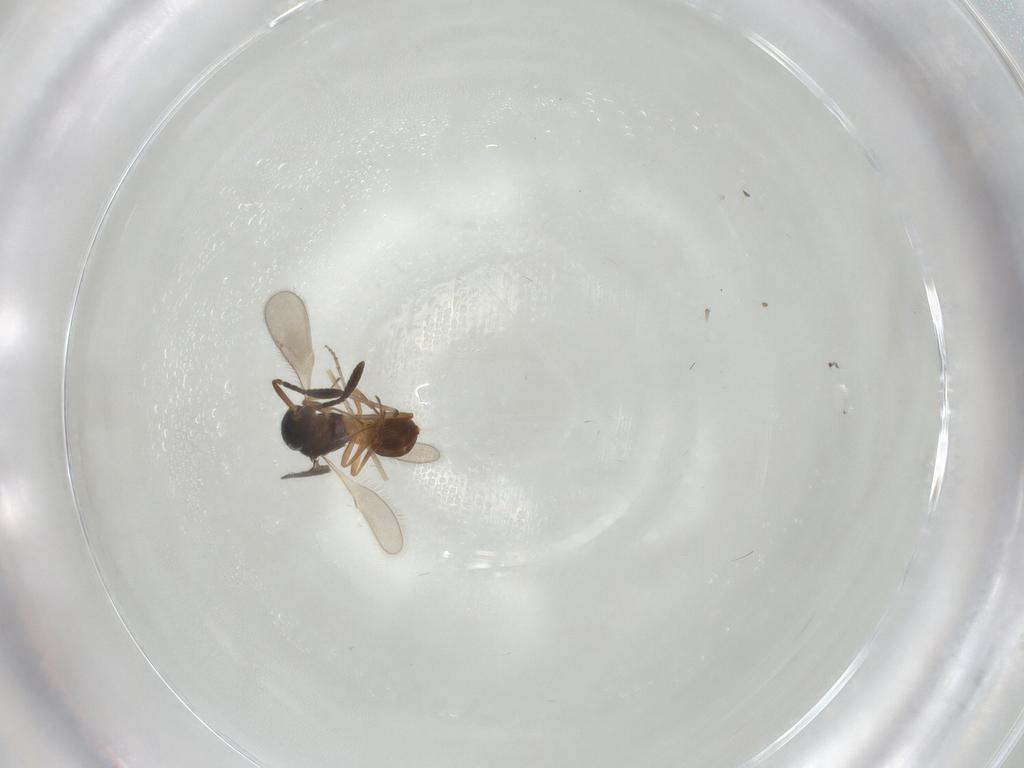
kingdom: Animalia
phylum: Arthropoda
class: Insecta
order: Hymenoptera
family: Scelionidae
